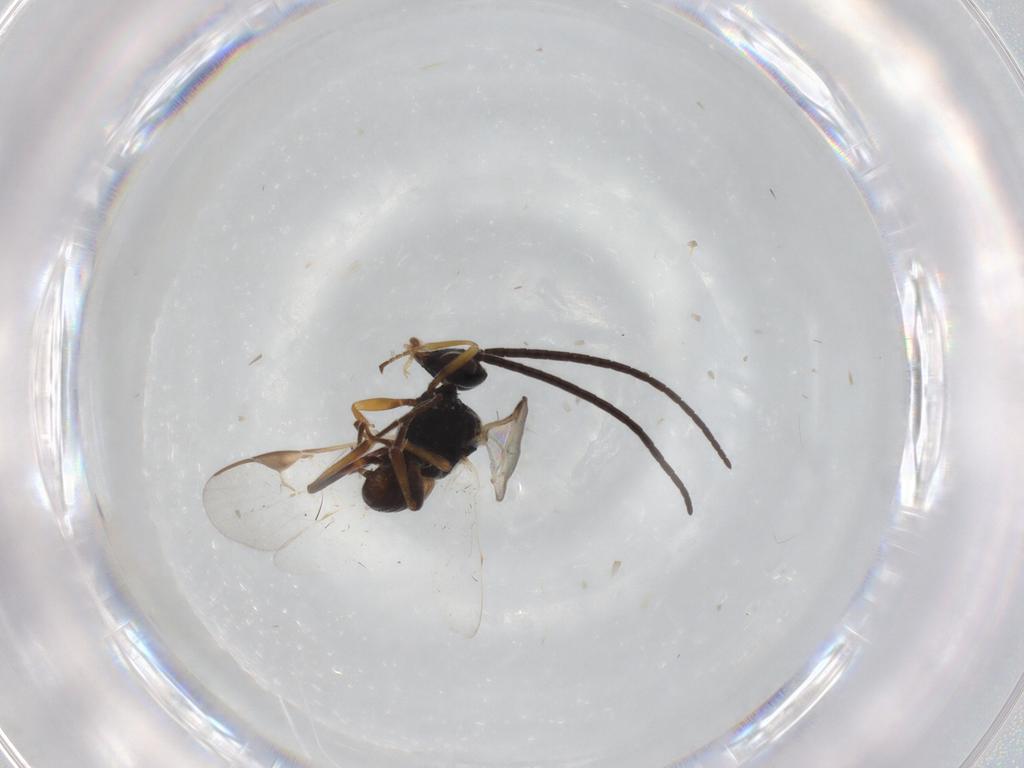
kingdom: Animalia
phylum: Arthropoda
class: Insecta
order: Hymenoptera
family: Braconidae
